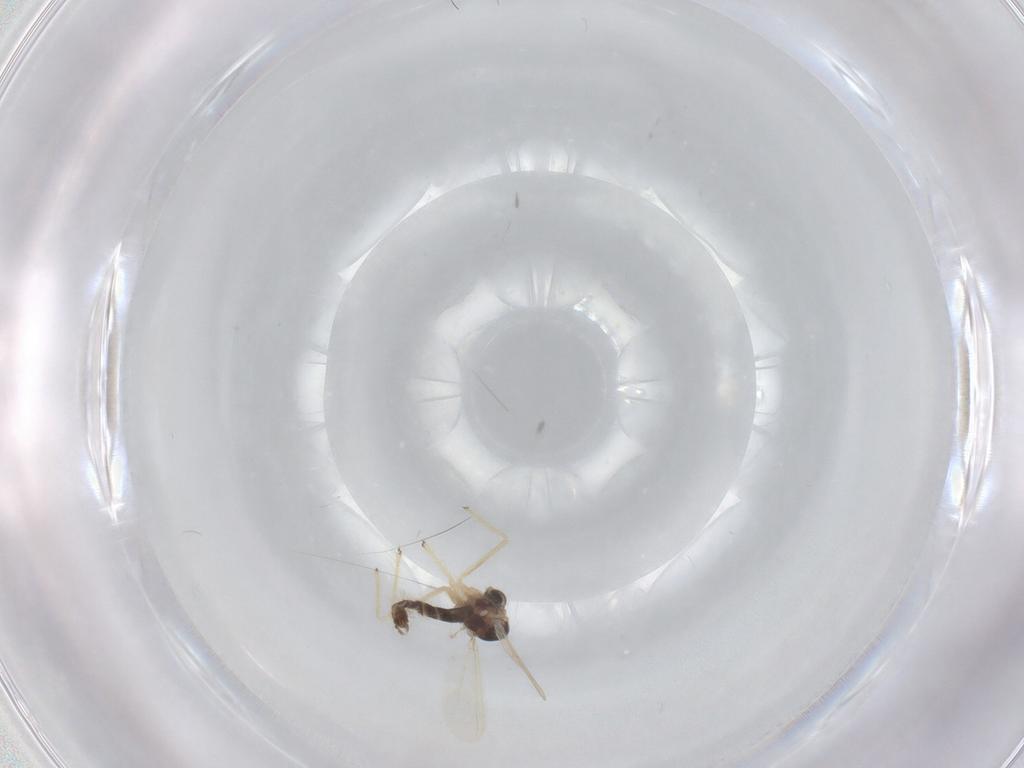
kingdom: Animalia
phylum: Arthropoda
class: Insecta
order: Diptera
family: Chironomidae
